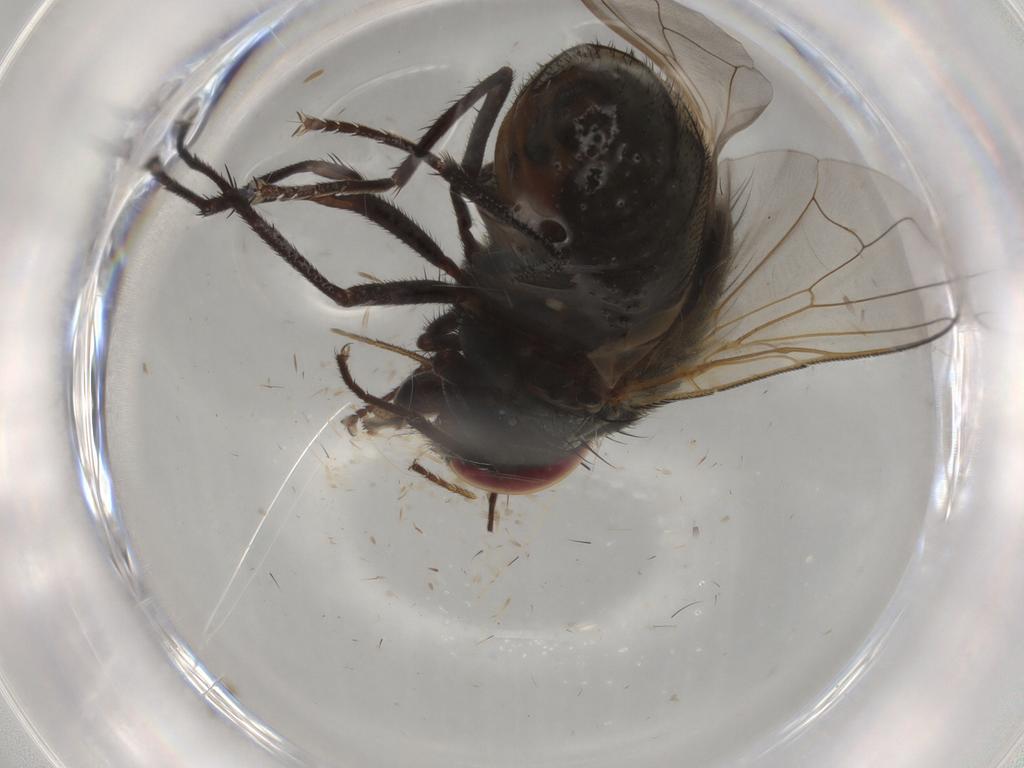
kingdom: Animalia
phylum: Arthropoda
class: Insecta
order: Diptera
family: Muscidae
